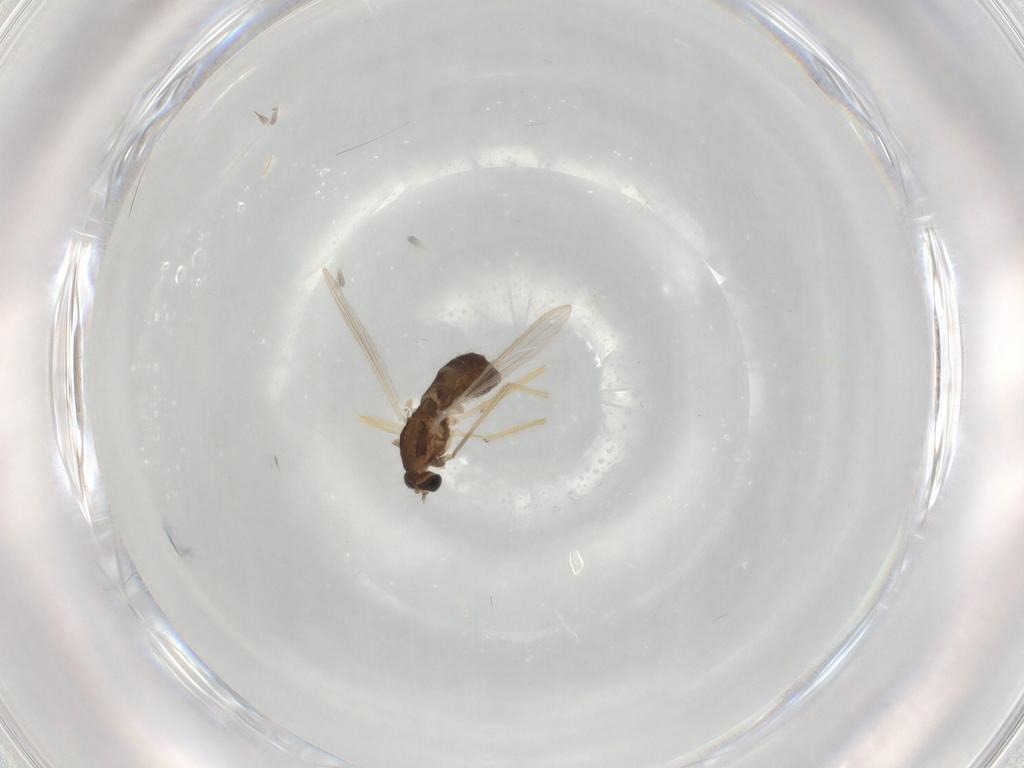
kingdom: Animalia
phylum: Arthropoda
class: Insecta
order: Diptera
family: Chironomidae
